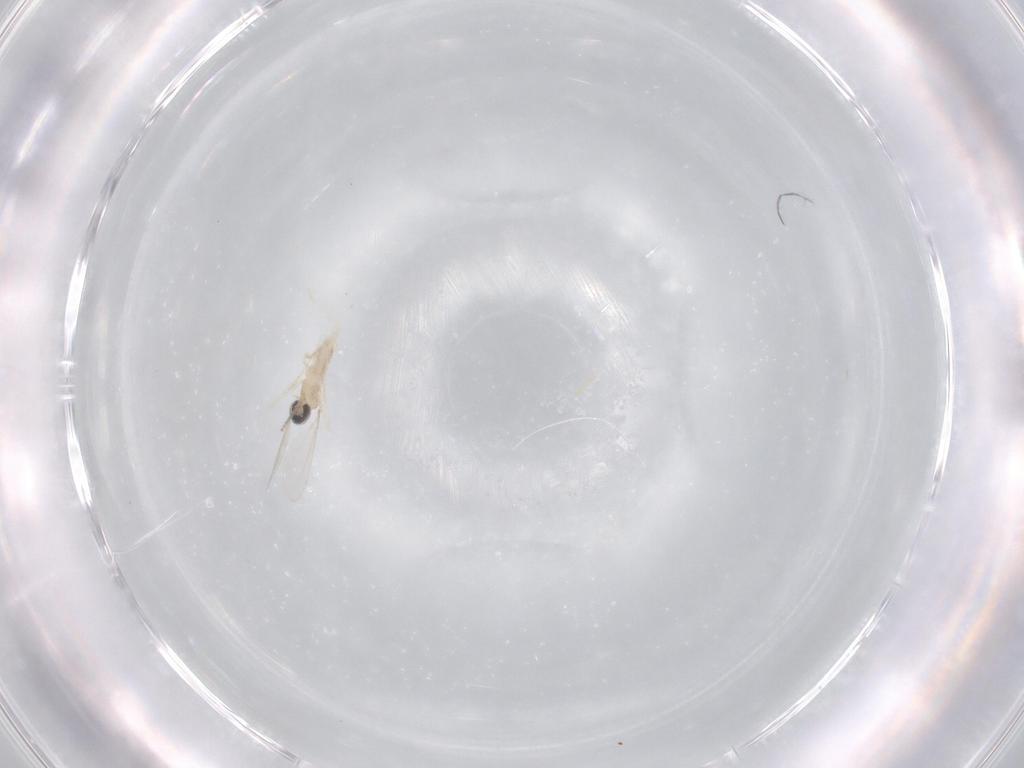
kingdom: Animalia
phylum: Arthropoda
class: Insecta
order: Diptera
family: Cecidomyiidae
